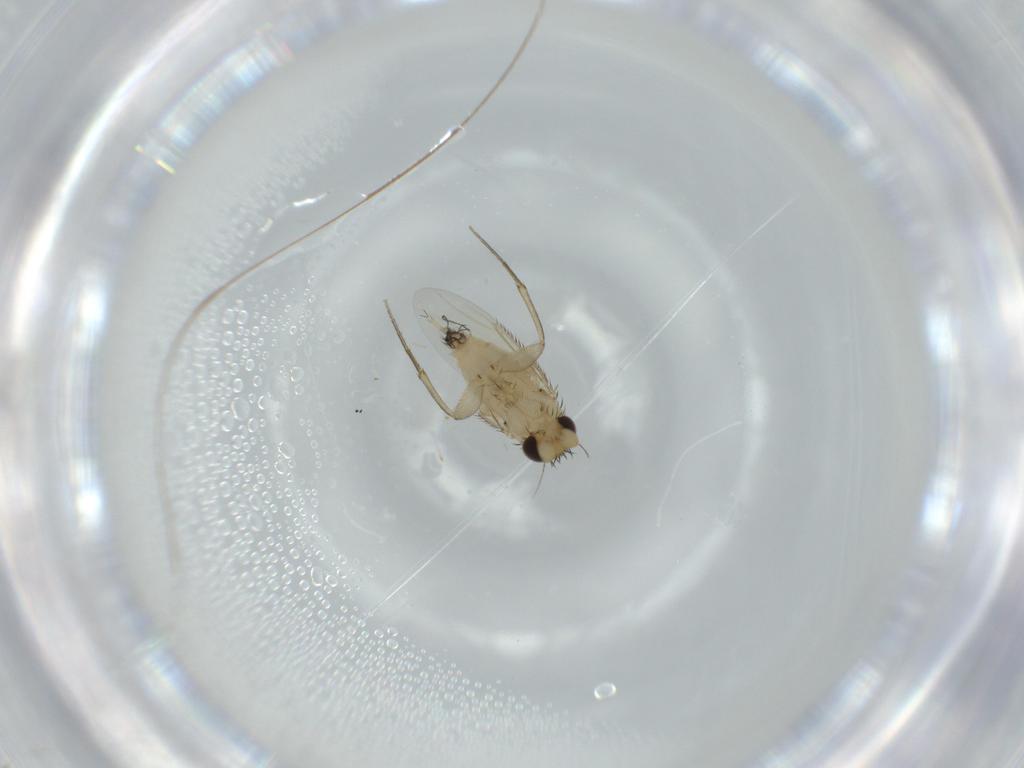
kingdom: Animalia
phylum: Arthropoda
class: Insecta
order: Diptera
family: Phoridae
